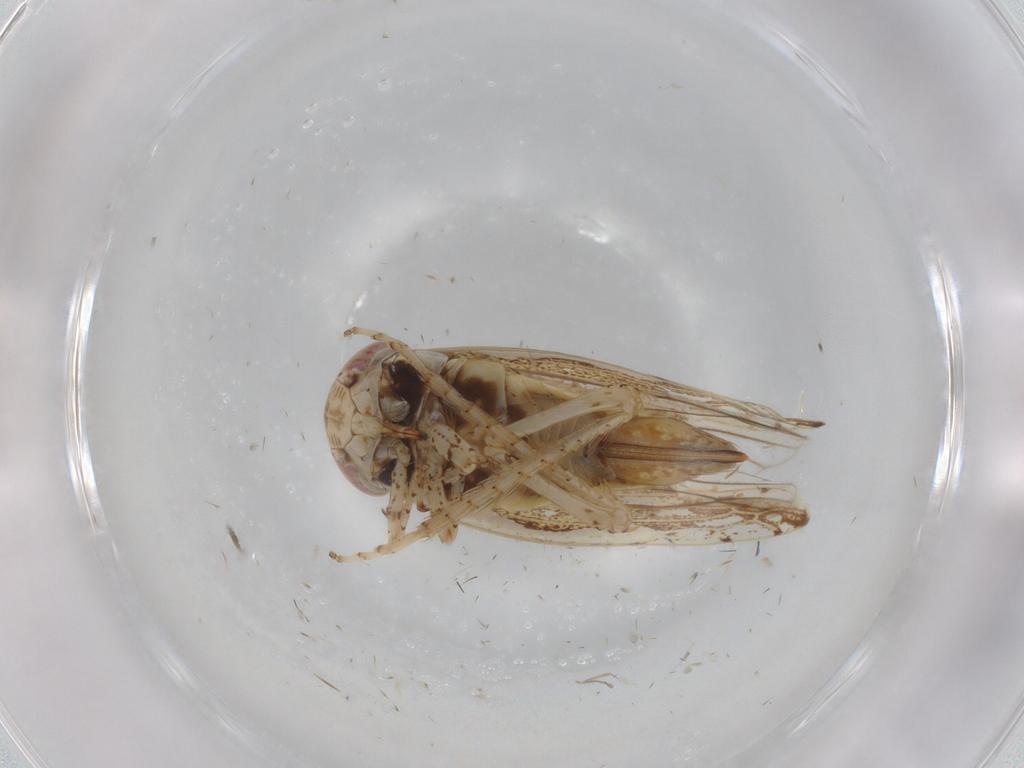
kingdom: Animalia
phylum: Arthropoda
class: Insecta
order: Hemiptera
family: Cicadellidae
